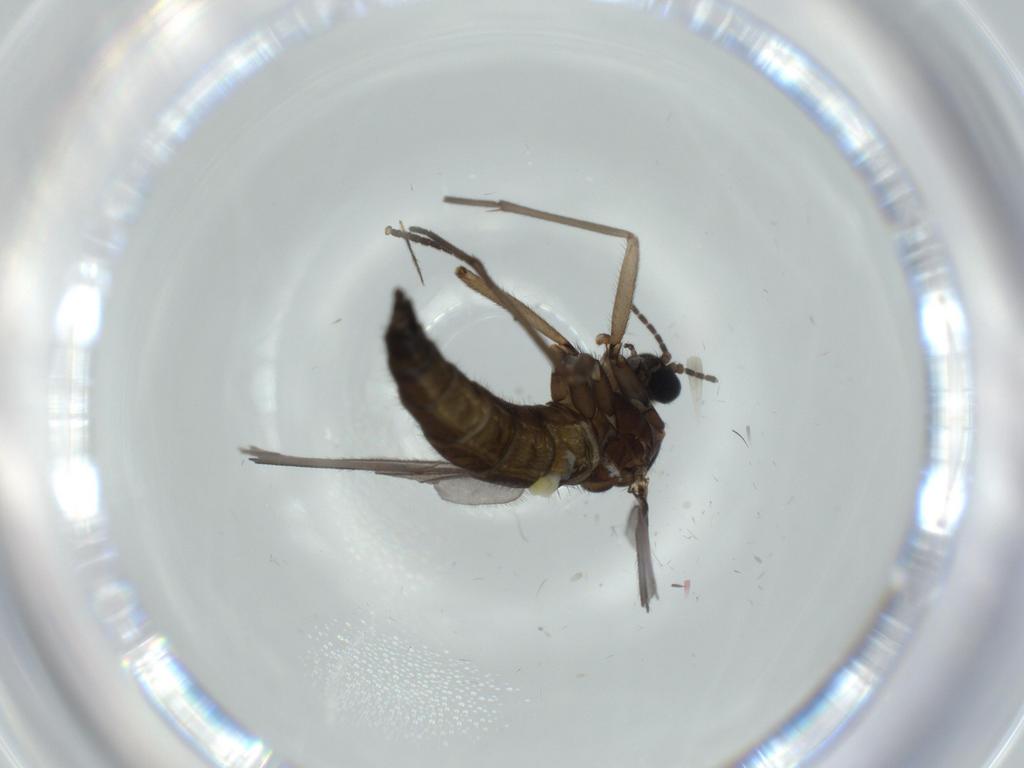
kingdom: Animalia
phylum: Arthropoda
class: Insecta
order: Diptera
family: Sciaridae
